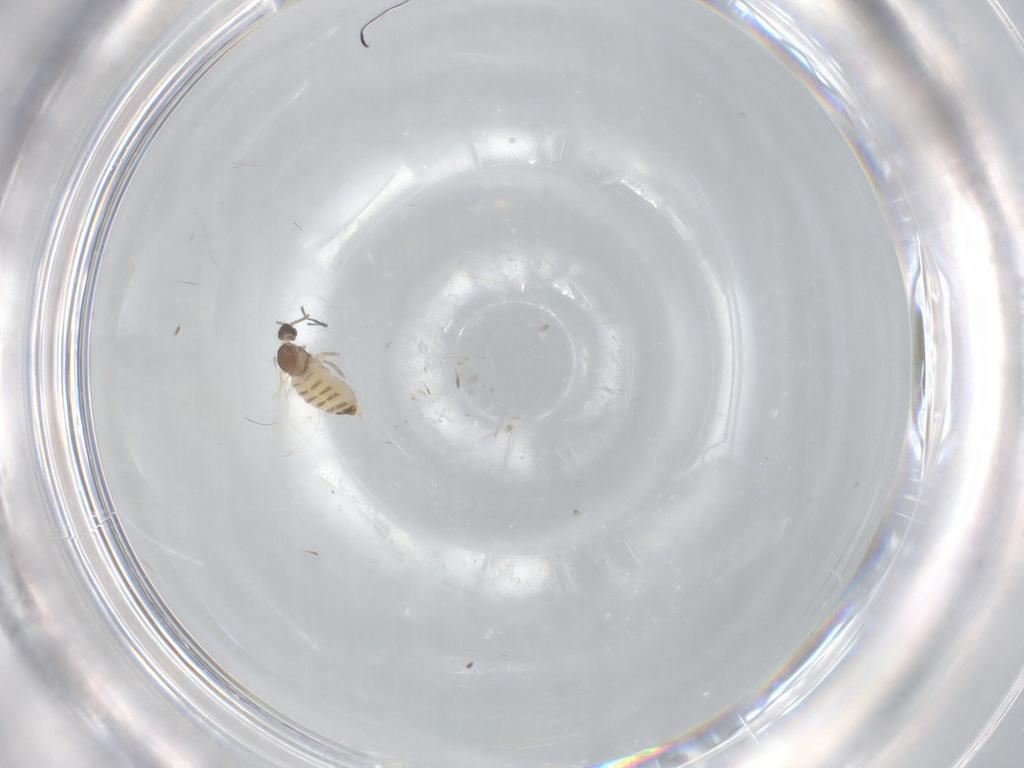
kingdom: Animalia
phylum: Arthropoda
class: Insecta
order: Diptera
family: Cecidomyiidae
